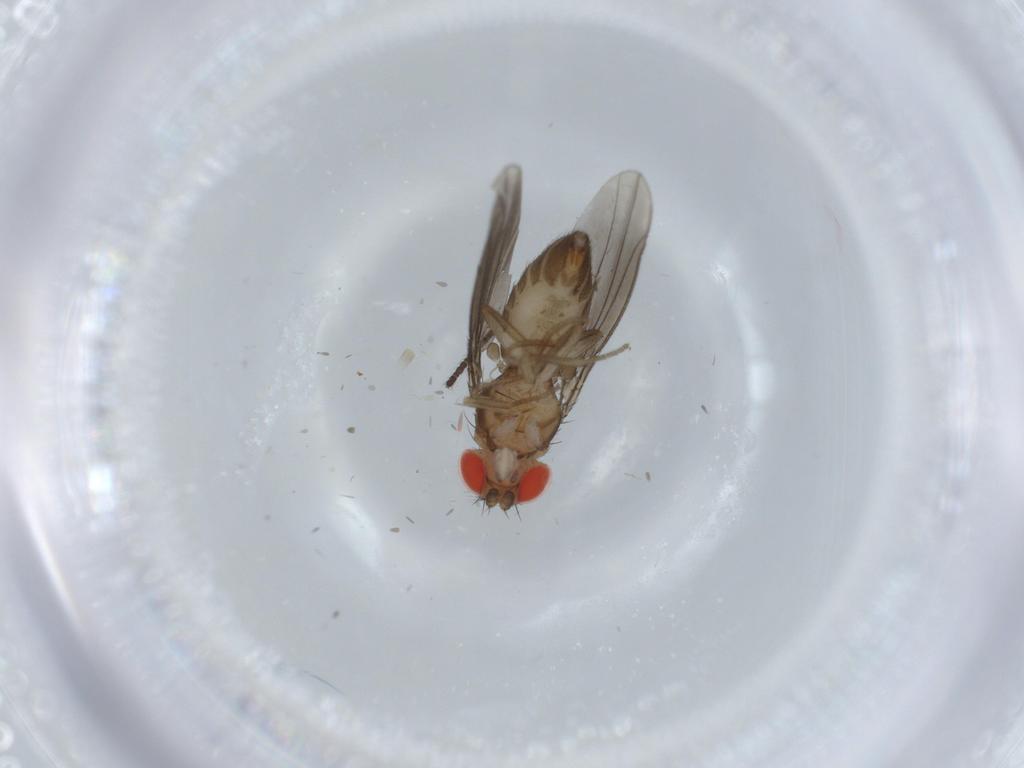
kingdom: Animalia
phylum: Arthropoda
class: Insecta
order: Diptera
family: Drosophilidae
